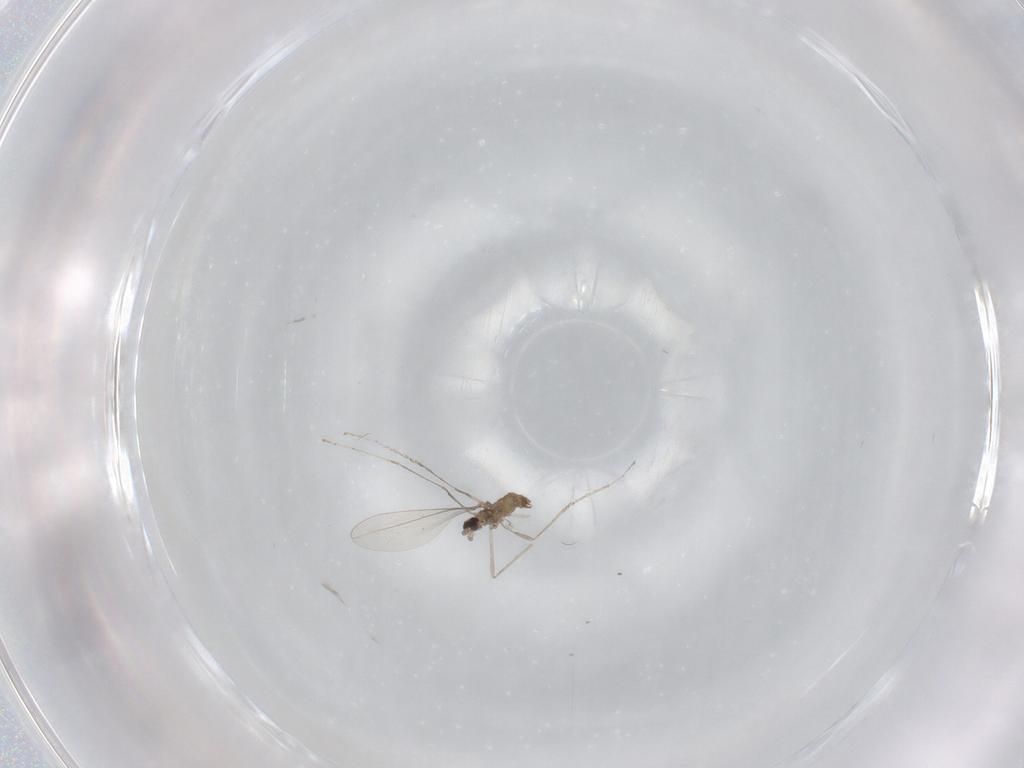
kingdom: Animalia
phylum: Arthropoda
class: Insecta
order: Diptera
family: Cecidomyiidae
